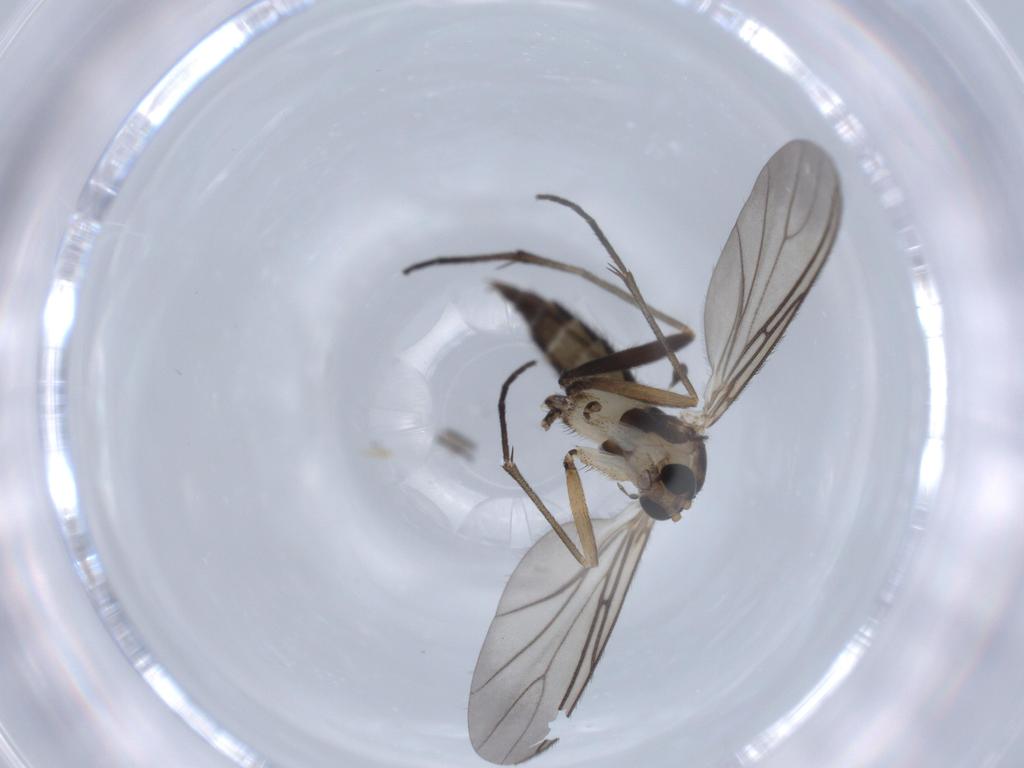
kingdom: Animalia
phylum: Arthropoda
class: Insecta
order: Diptera
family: Sciaridae
